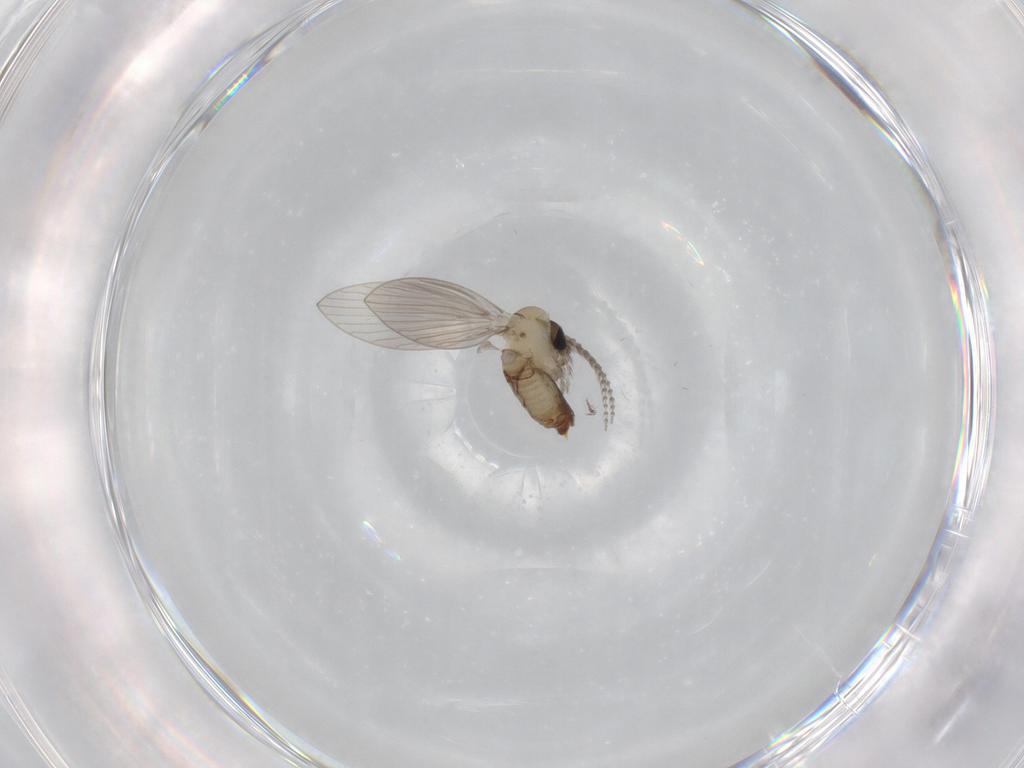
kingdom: Animalia
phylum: Arthropoda
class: Insecta
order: Diptera
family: Psychodidae
